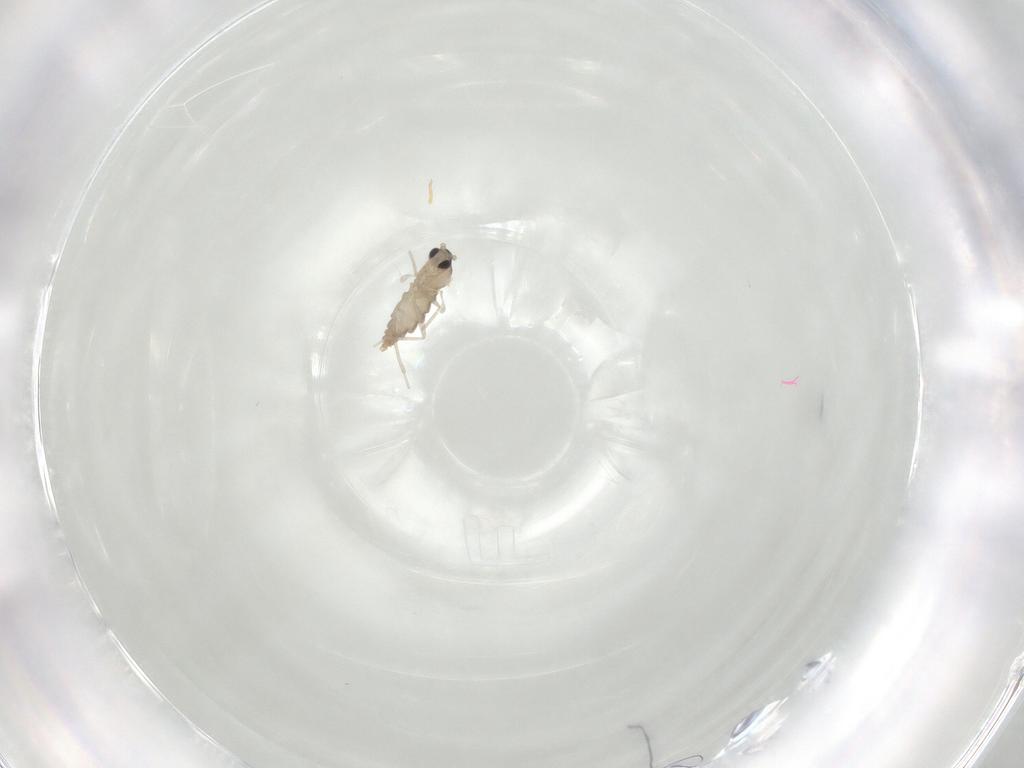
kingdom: Animalia
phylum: Arthropoda
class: Insecta
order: Diptera
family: Cecidomyiidae
